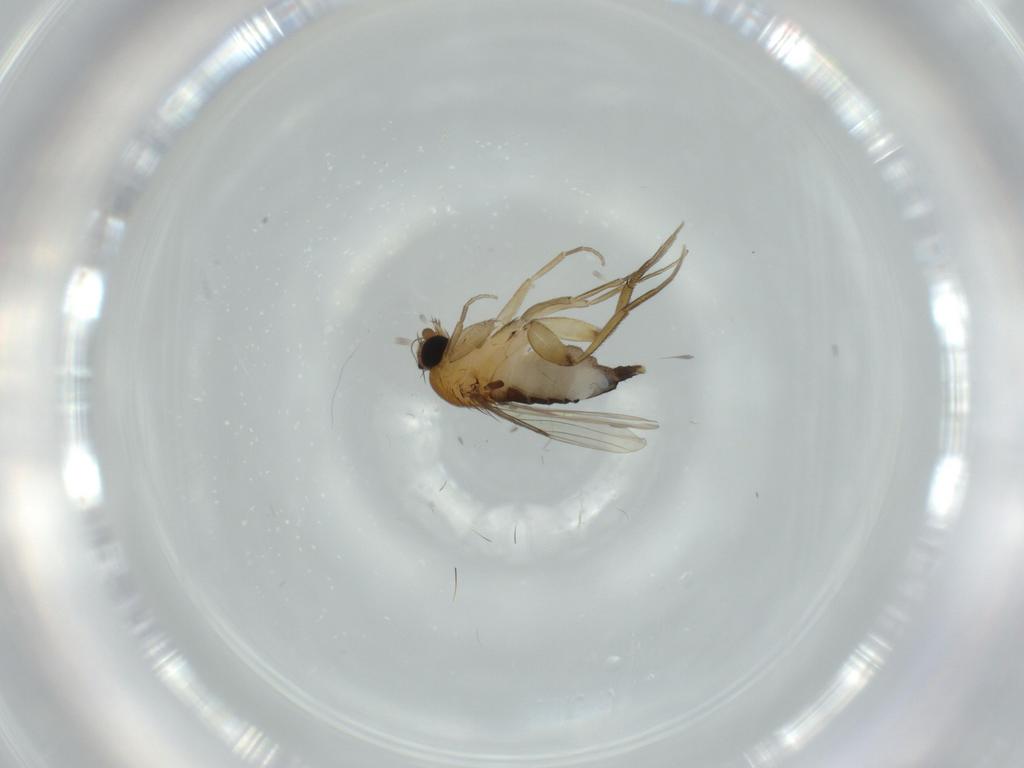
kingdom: Animalia
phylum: Arthropoda
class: Insecta
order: Diptera
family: Phoridae
